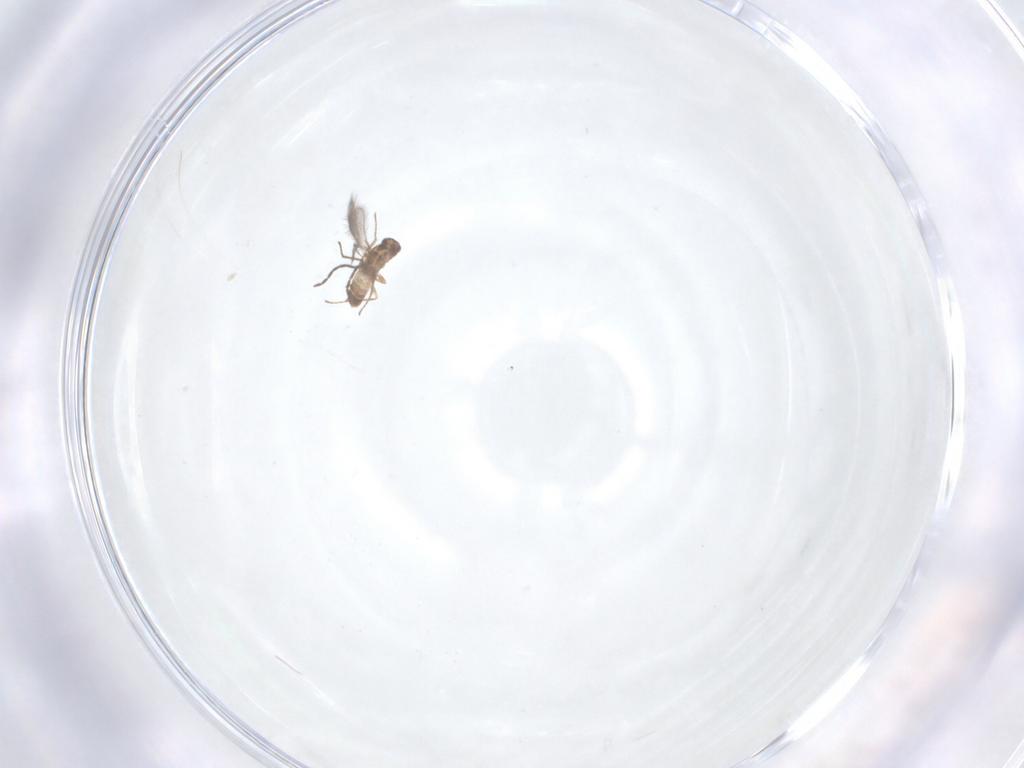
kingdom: Animalia
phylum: Arthropoda
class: Insecta
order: Hymenoptera
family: Mymaridae
